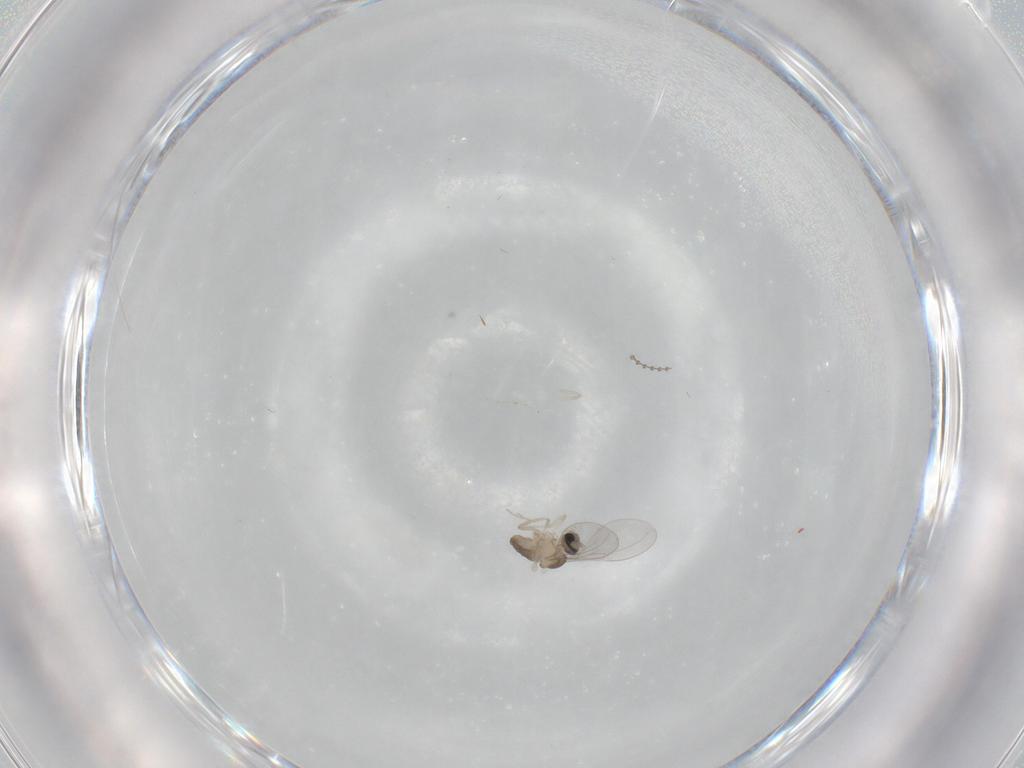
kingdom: Animalia
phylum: Arthropoda
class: Insecta
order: Diptera
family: Cecidomyiidae
